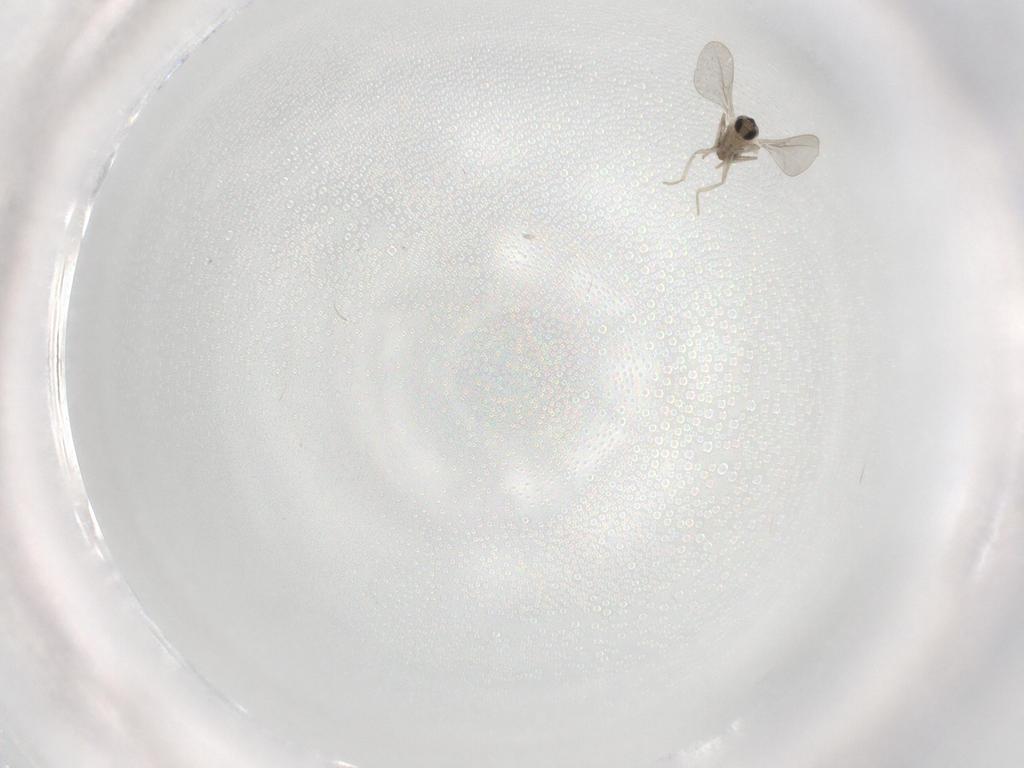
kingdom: Animalia
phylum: Arthropoda
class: Insecta
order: Diptera
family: Cecidomyiidae
